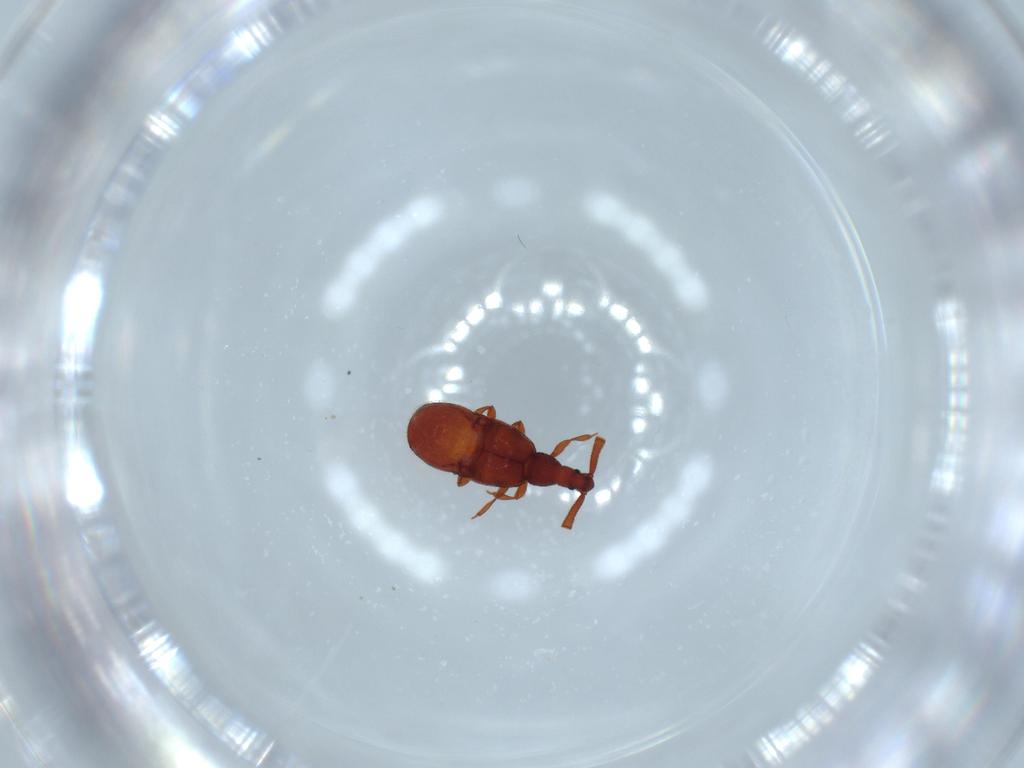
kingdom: Animalia
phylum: Arthropoda
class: Insecta
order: Coleoptera
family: Staphylinidae
